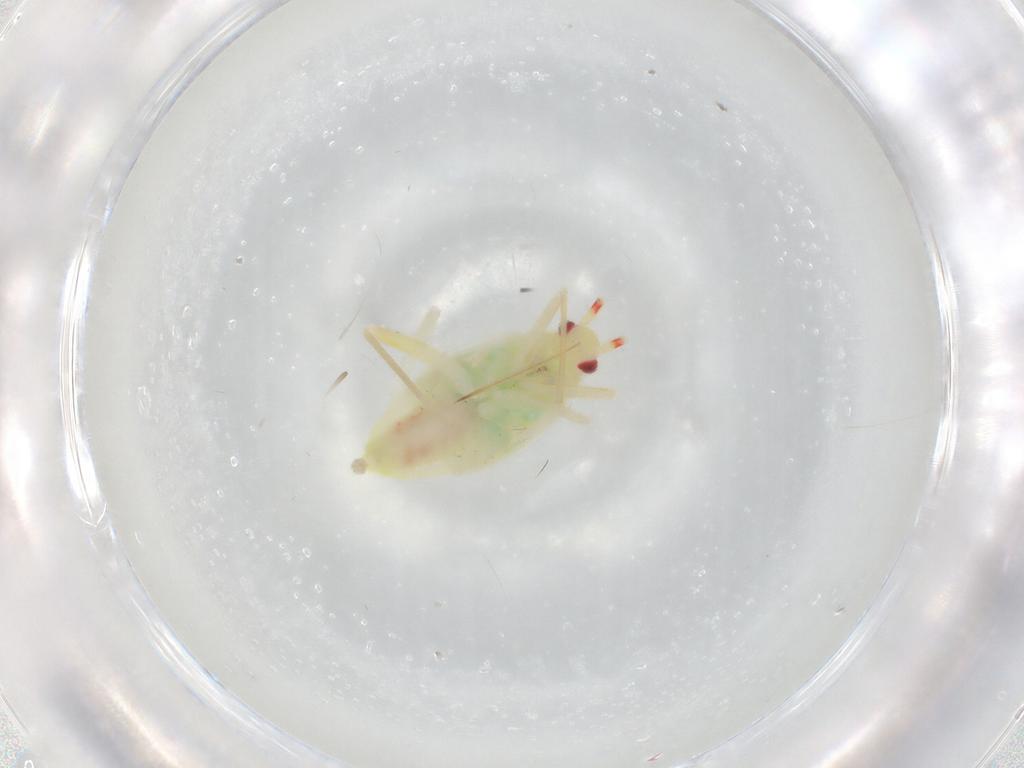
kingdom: Animalia
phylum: Arthropoda
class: Insecta
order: Hemiptera
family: Miridae
